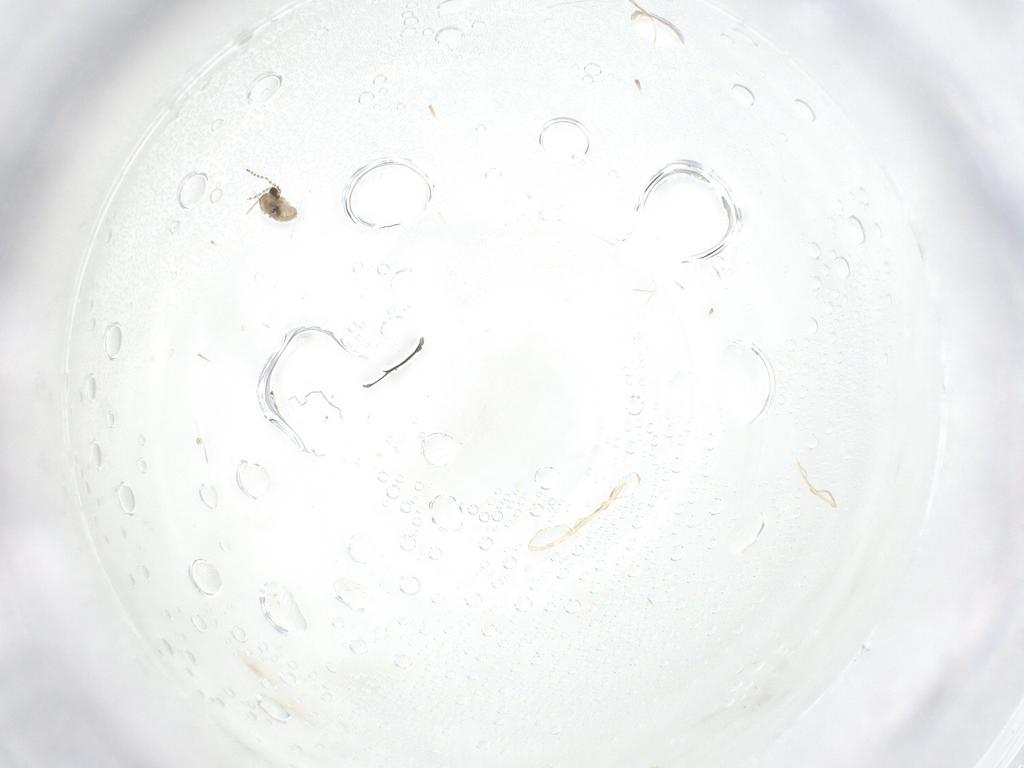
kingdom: Animalia
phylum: Arthropoda
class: Insecta
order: Diptera
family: Cecidomyiidae
